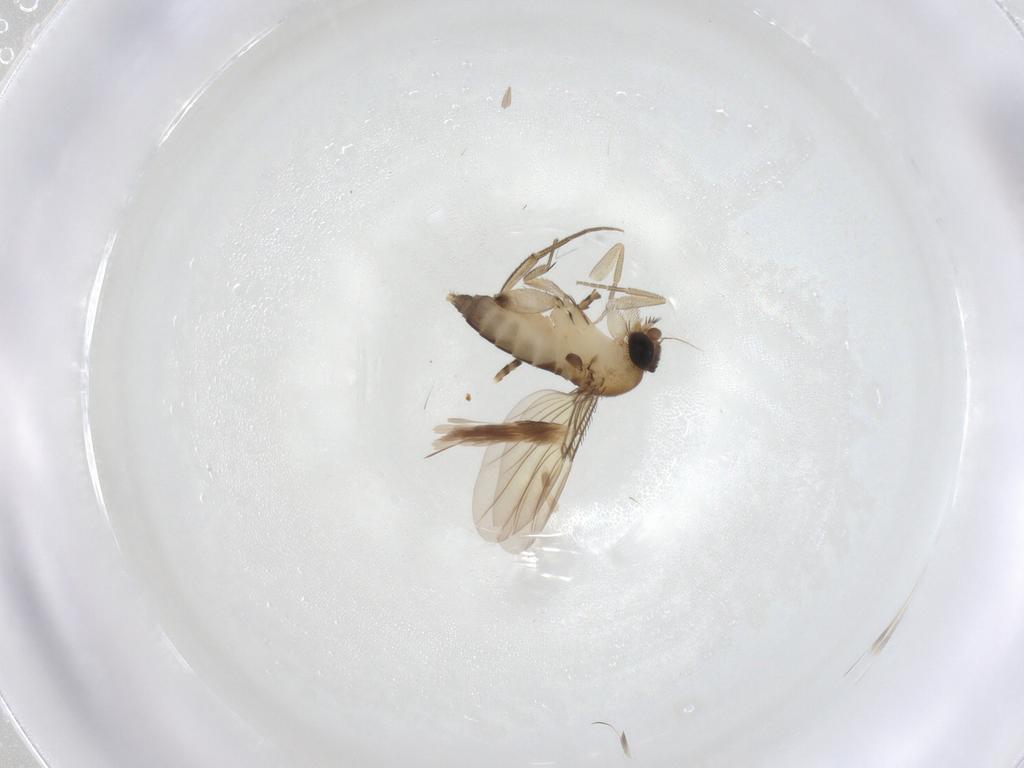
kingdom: Animalia
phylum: Arthropoda
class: Insecta
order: Diptera
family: Phoridae
